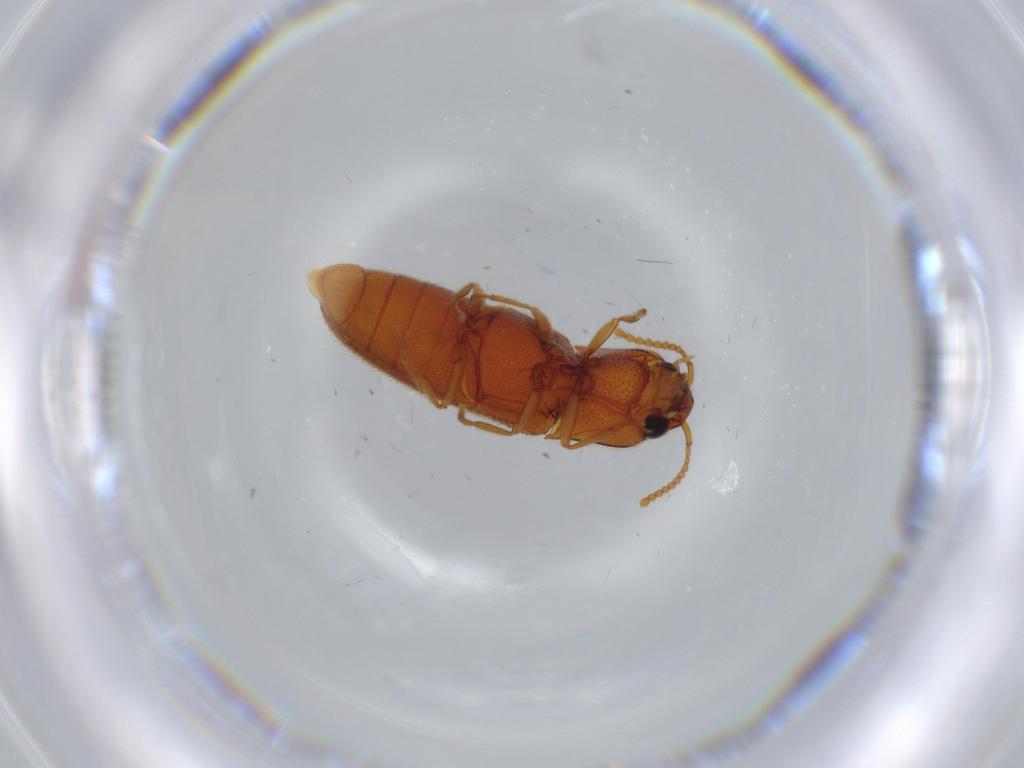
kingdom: Animalia
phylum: Arthropoda
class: Insecta
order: Coleoptera
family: Elateridae
